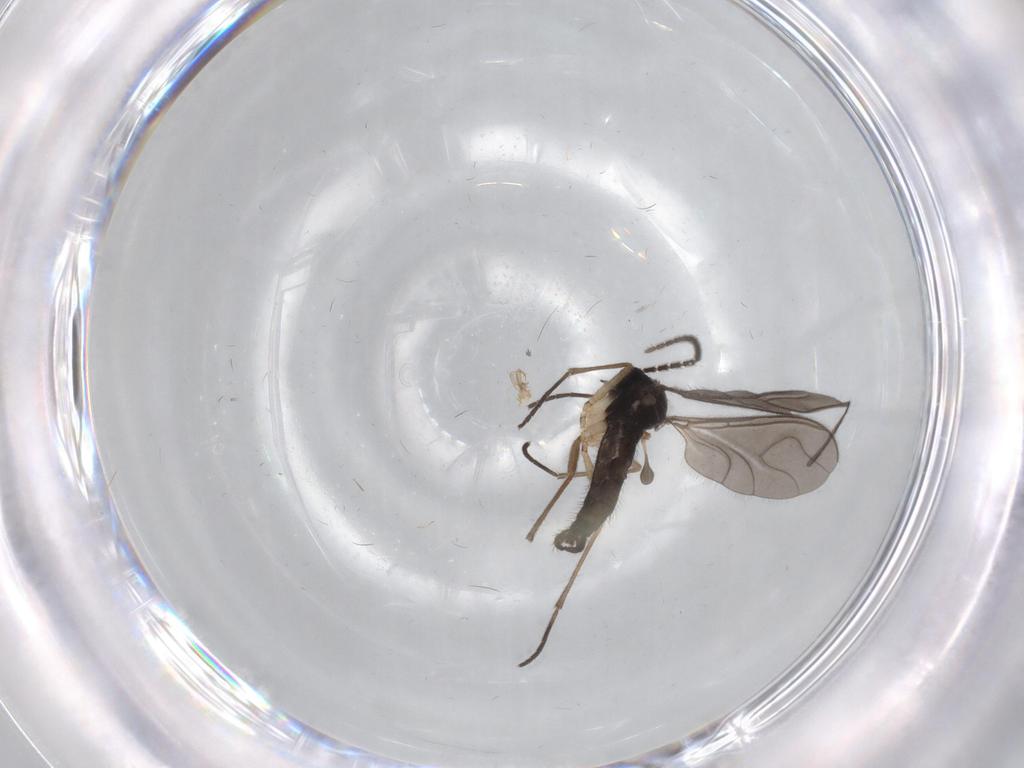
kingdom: Animalia
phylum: Arthropoda
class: Insecta
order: Diptera
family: Sciaridae
